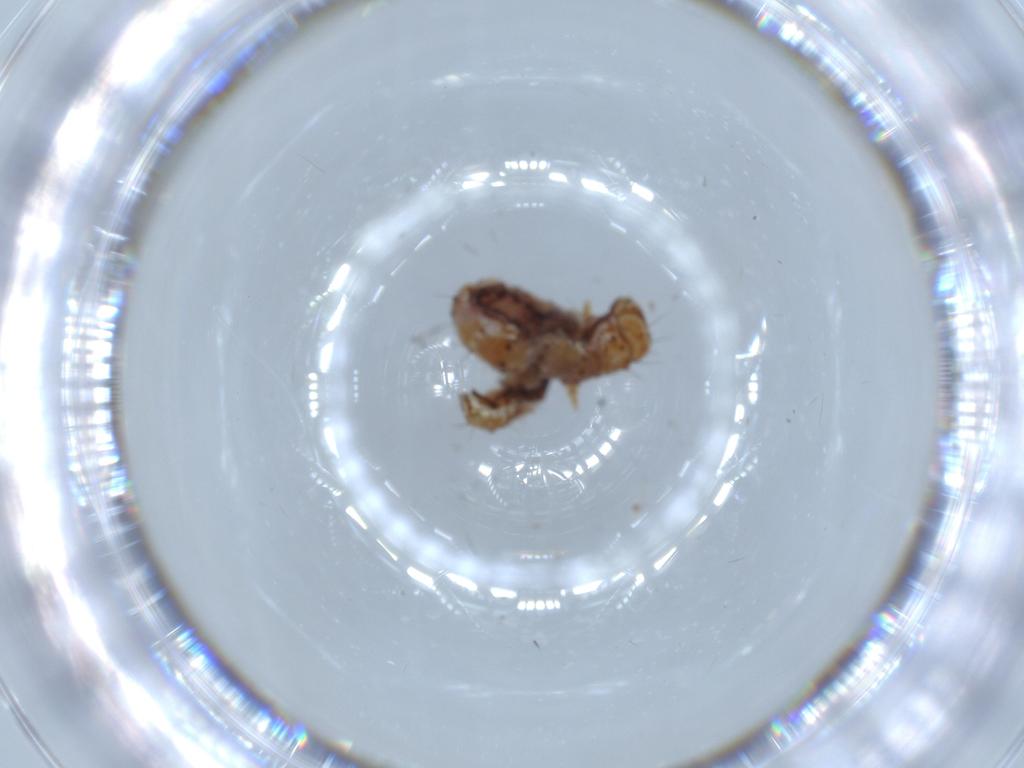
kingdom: Animalia
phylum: Arthropoda
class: Insecta
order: Lepidoptera
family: Tineidae
